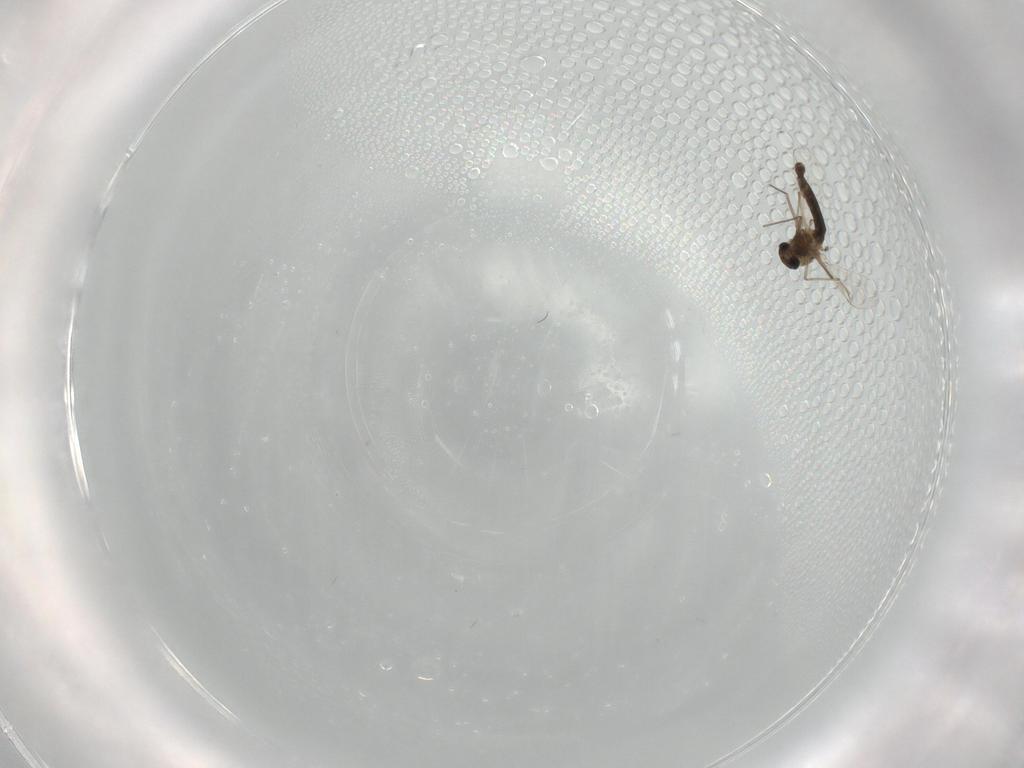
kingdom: Animalia
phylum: Arthropoda
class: Insecta
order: Diptera
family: Chironomidae
